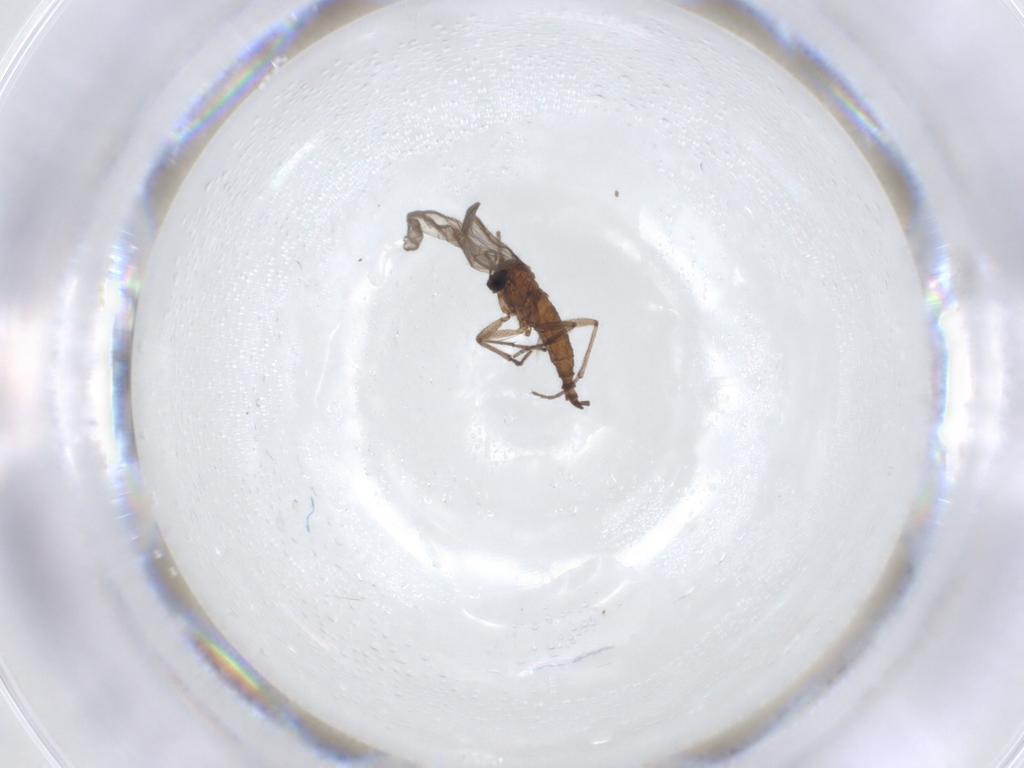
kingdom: Animalia
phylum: Arthropoda
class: Insecta
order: Diptera
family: Sciaridae
